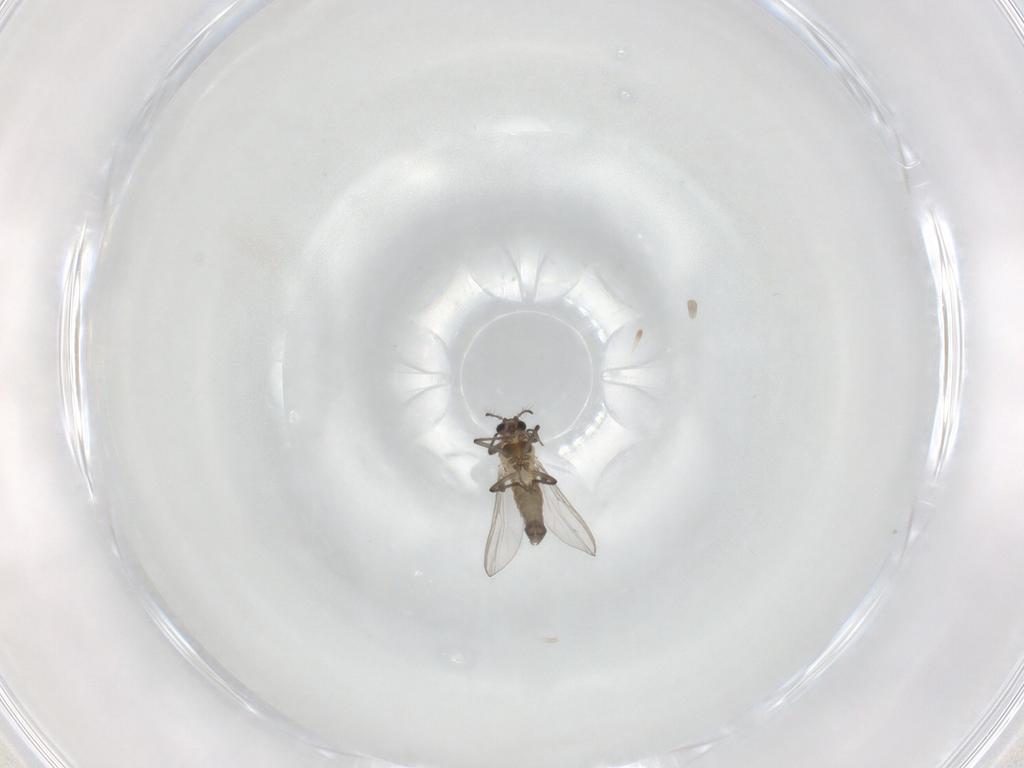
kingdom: Animalia
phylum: Arthropoda
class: Insecta
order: Diptera
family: Chironomidae
